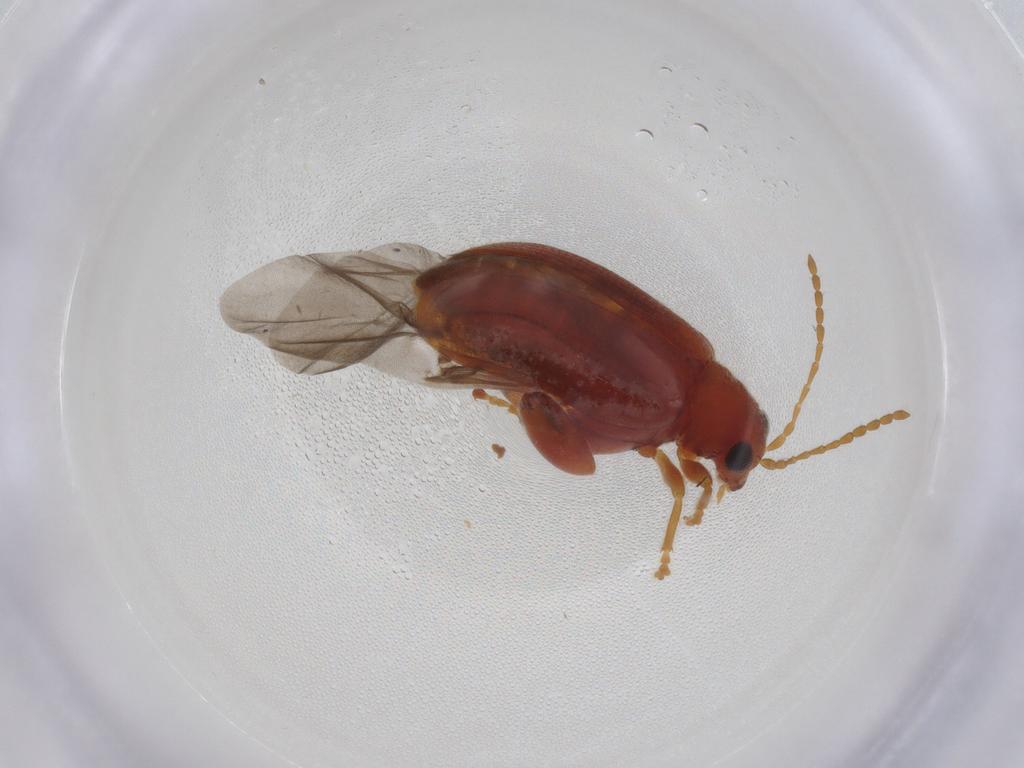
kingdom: Animalia
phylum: Arthropoda
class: Insecta
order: Coleoptera
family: Chrysomelidae
